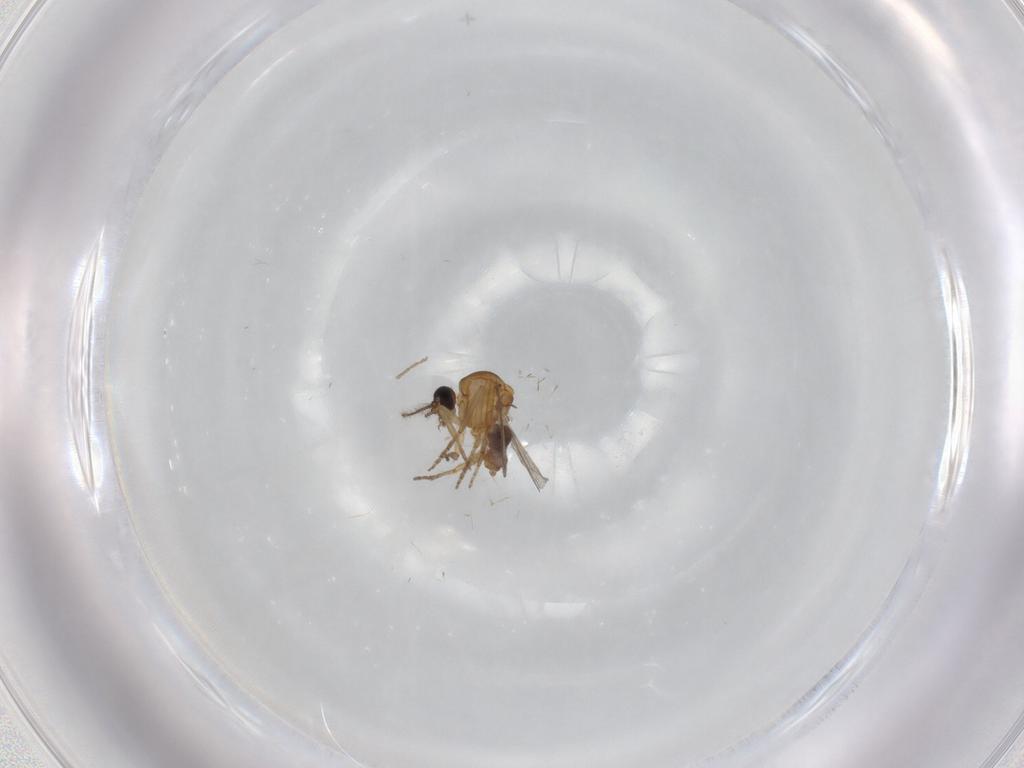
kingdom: Animalia
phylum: Arthropoda
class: Insecta
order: Diptera
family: Ceratopogonidae
